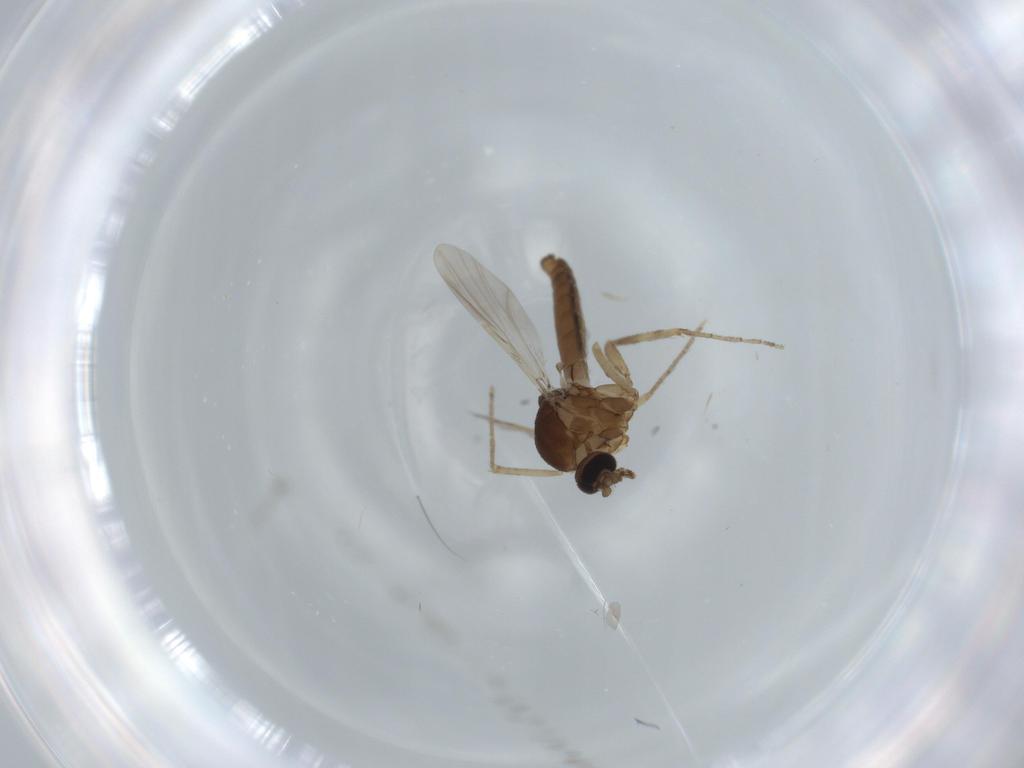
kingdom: Animalia
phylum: Arthropoda
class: Insecta
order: Diptera
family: Ceratopogonidae
